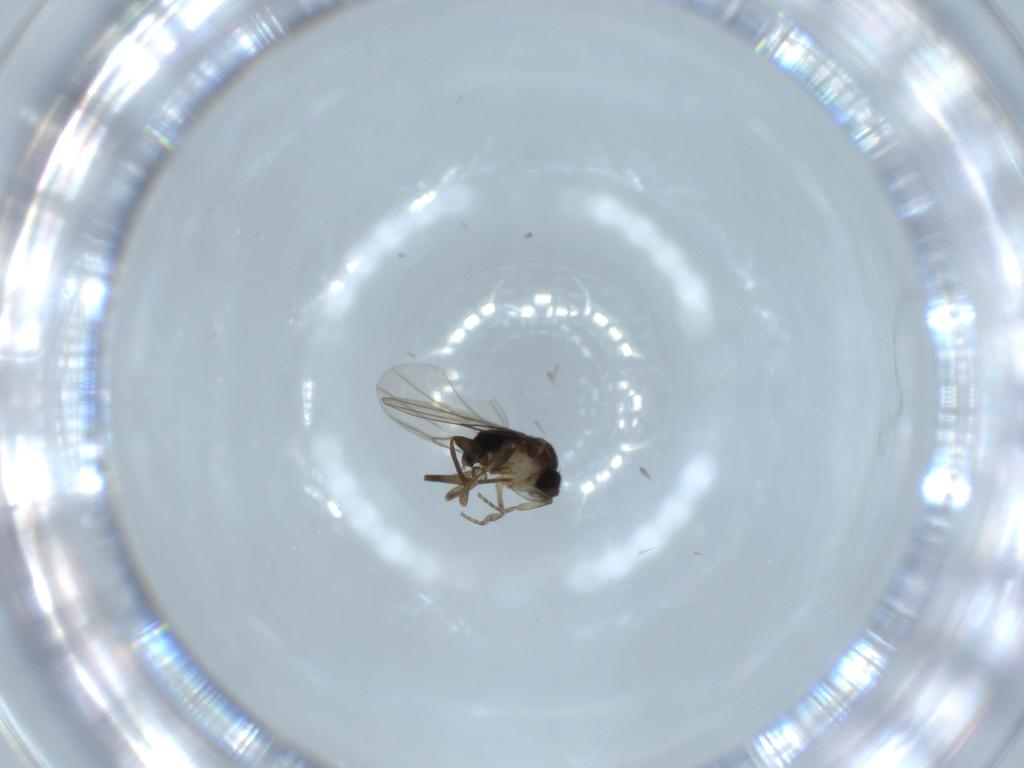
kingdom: Animalia
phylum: Arthropoda
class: Insecta
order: Diptera
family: Phoridae
